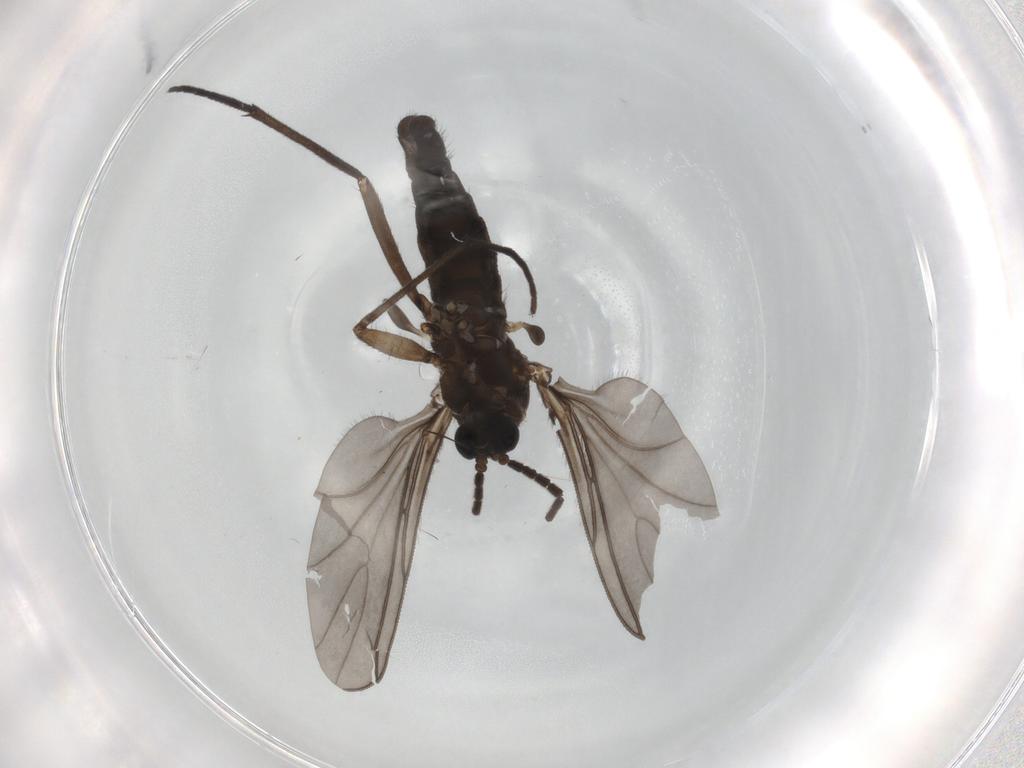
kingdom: Animalia
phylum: Arthropoda
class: Insecta
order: Diptera
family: Sciaridae
